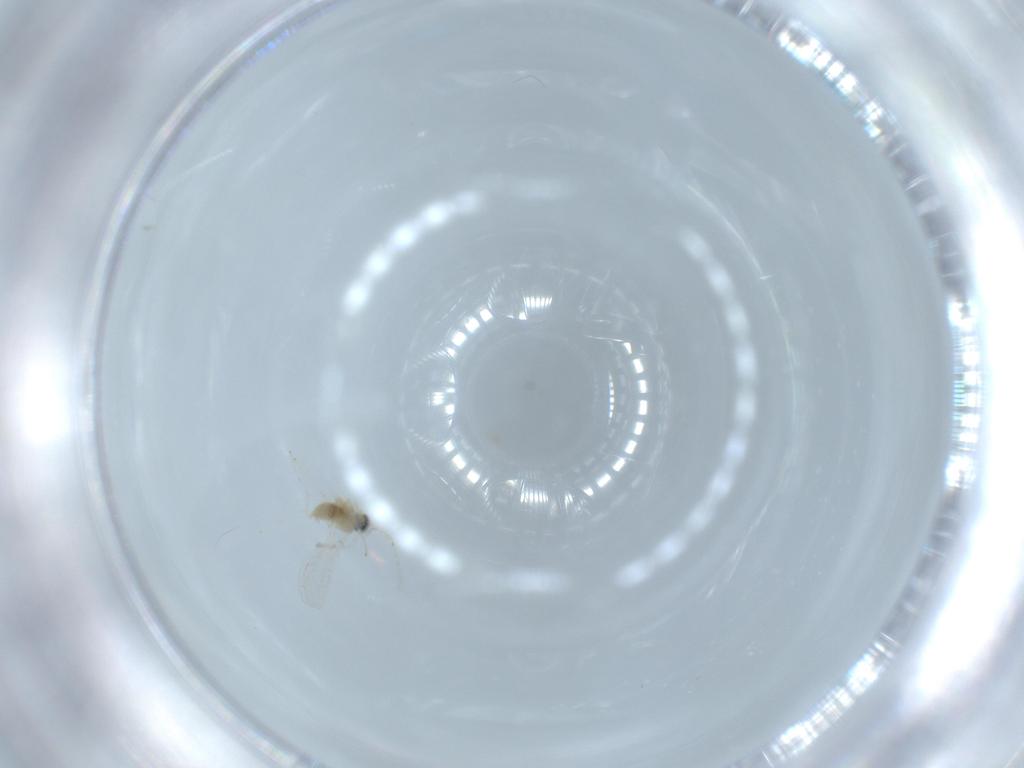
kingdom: Animalia
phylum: Arthropoda
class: Insecta
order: Diptera
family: Cecidomyiidae
